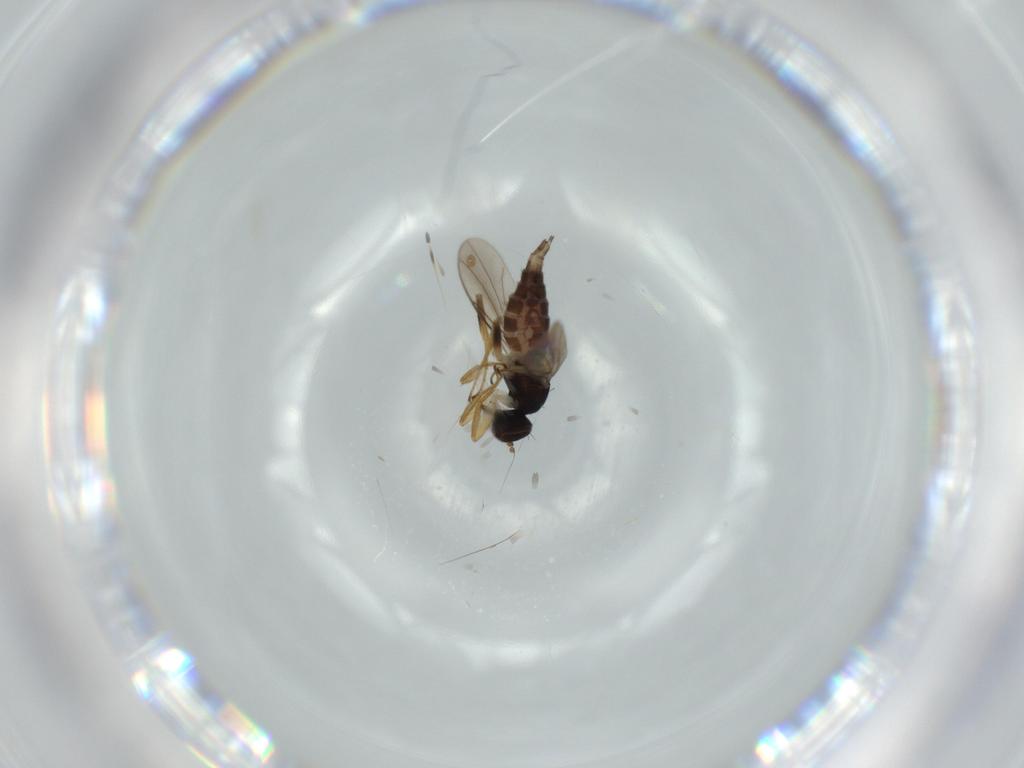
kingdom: Animalia
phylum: Arthropoda
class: Insecta
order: Diptera
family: Hybotidae
